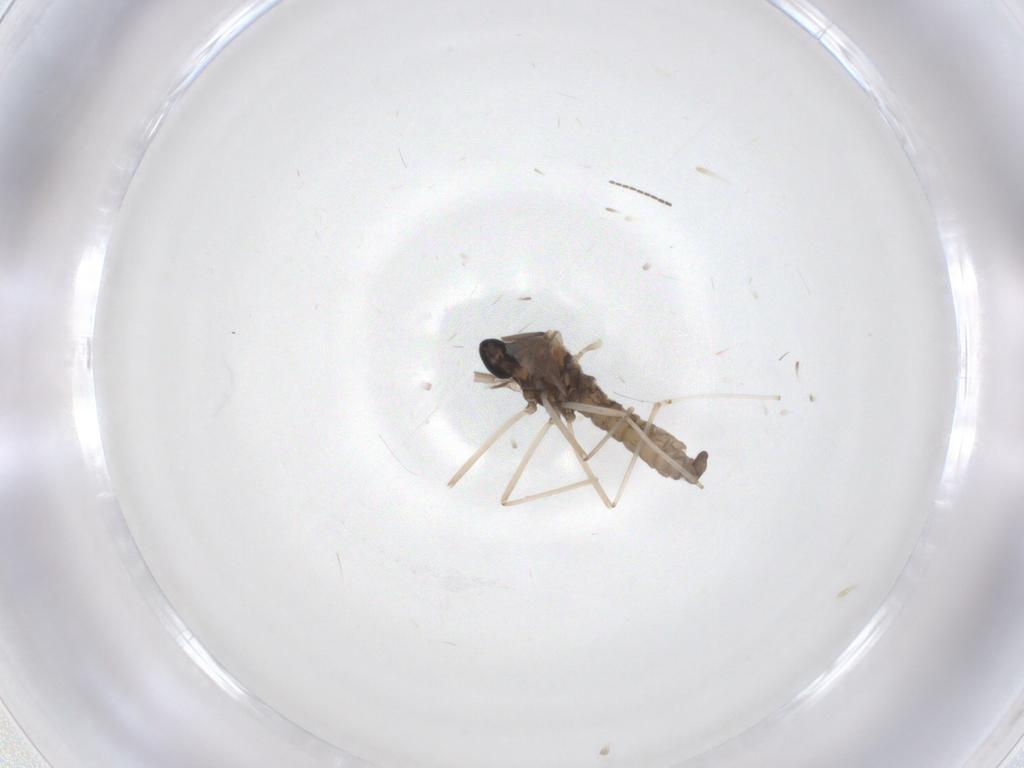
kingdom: Animalia
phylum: Arthropoda
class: Insecta
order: Diptera
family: Cecidomyiidae
